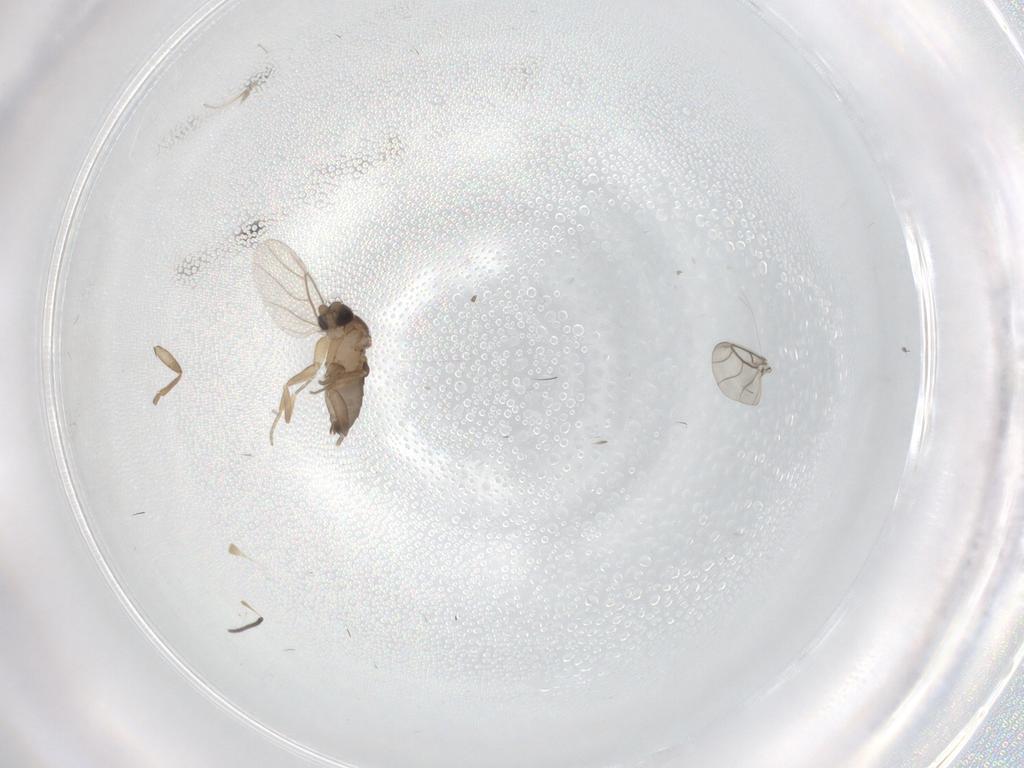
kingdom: Animalia
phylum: Arthropoda
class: Insecta
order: Diptera
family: Phoridae
